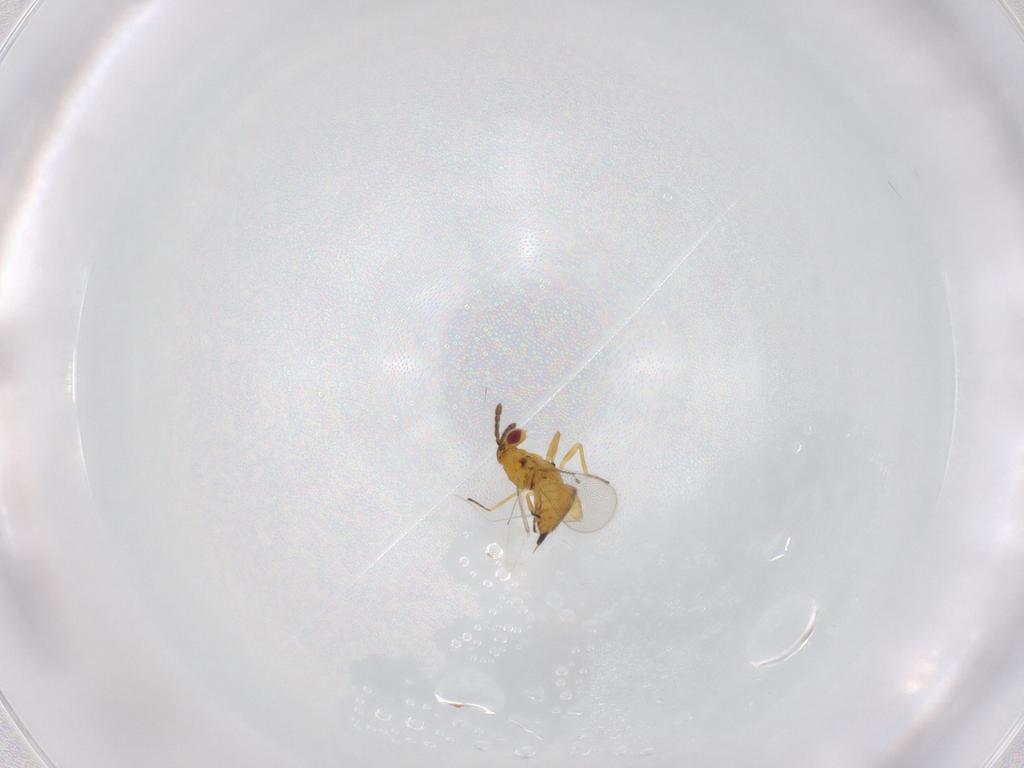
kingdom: Animalia
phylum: Arthropoda
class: Insecta
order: Hymenoptera
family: Eulophidae
